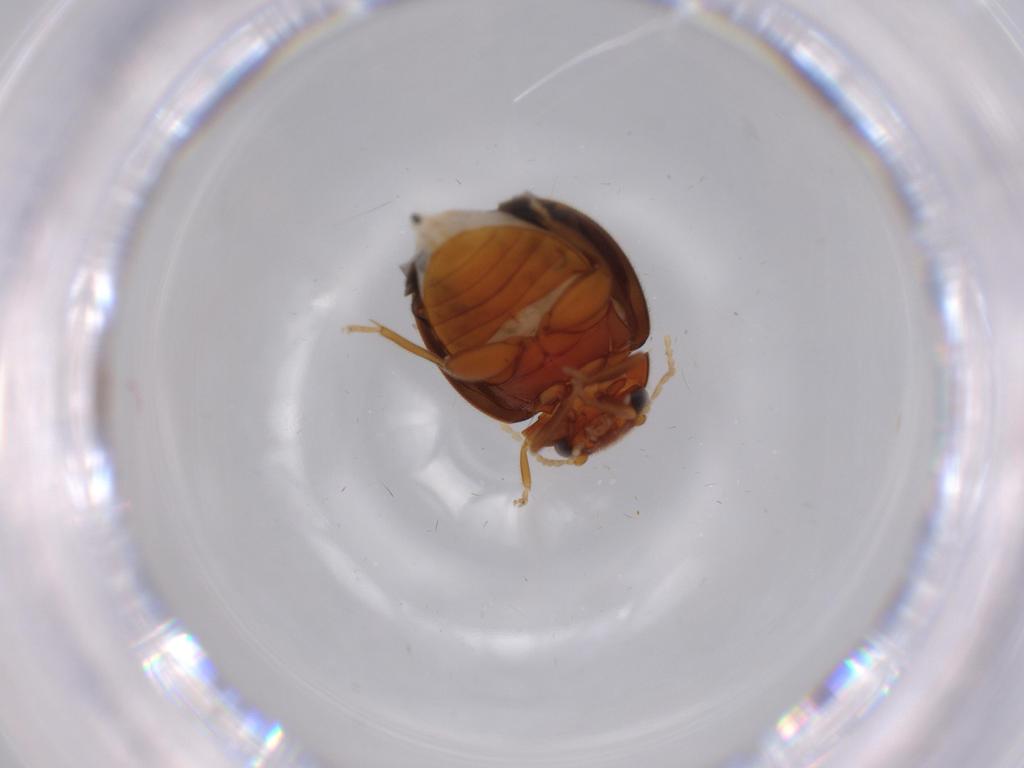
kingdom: Animalia
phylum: Arthropoda
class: Insecta
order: Coleoptera
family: Scirtidae
